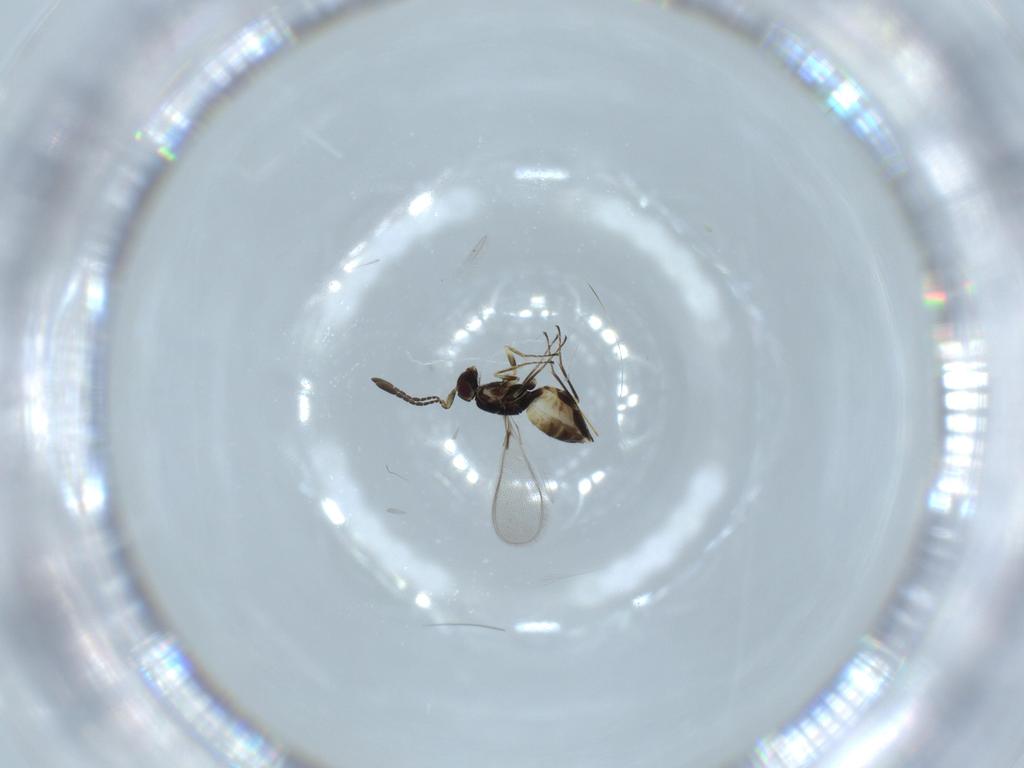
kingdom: Animalia
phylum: Arthropoda
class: Insecta
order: Hymenoptera
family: Mymaridae
